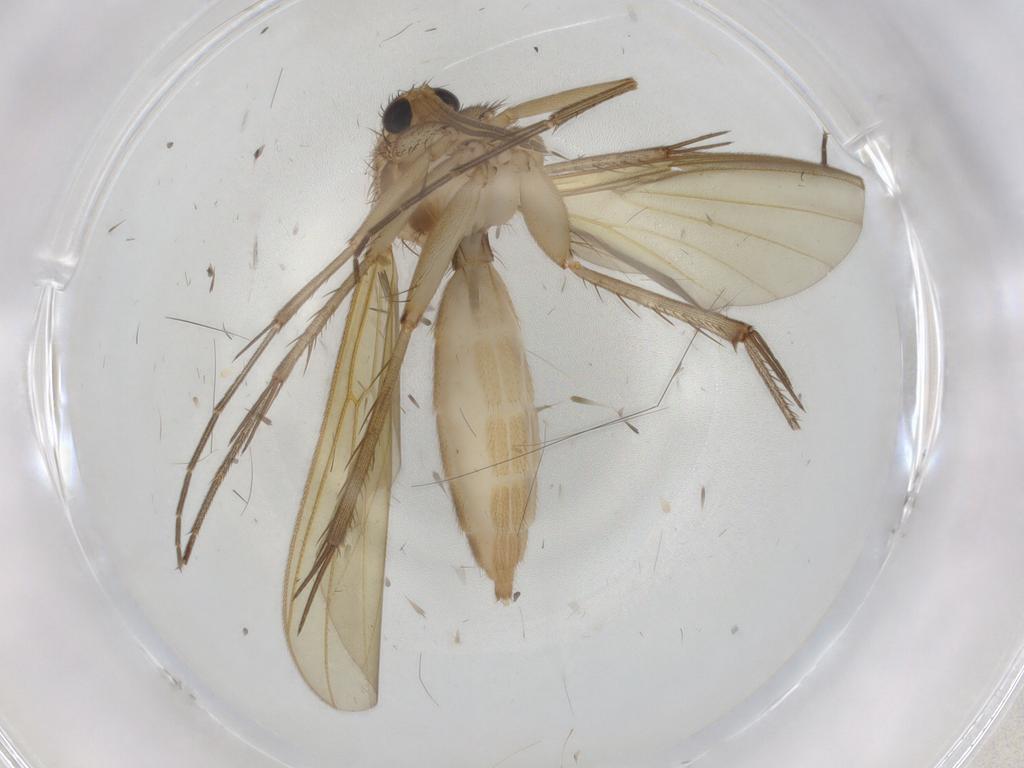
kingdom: Animalia
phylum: Arthropoda
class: Insecta
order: Diptera
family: Mycetophilidae
